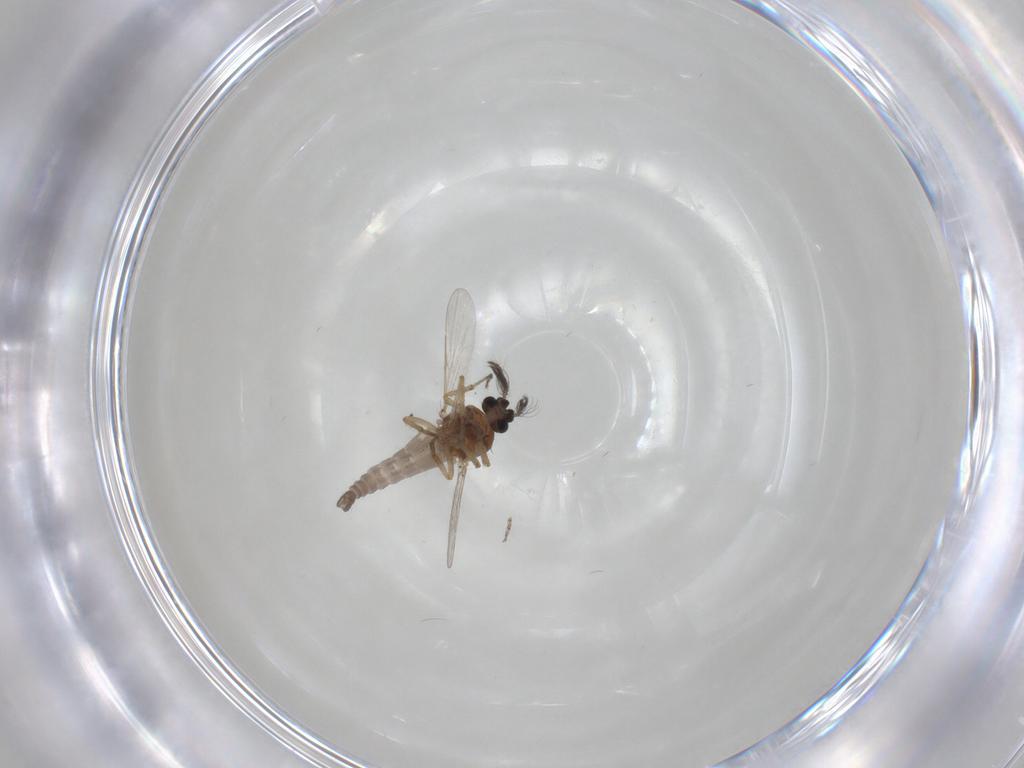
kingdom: Animalia
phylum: Arthropoda
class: Insecta
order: Diptera
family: Ceratopogonidae
